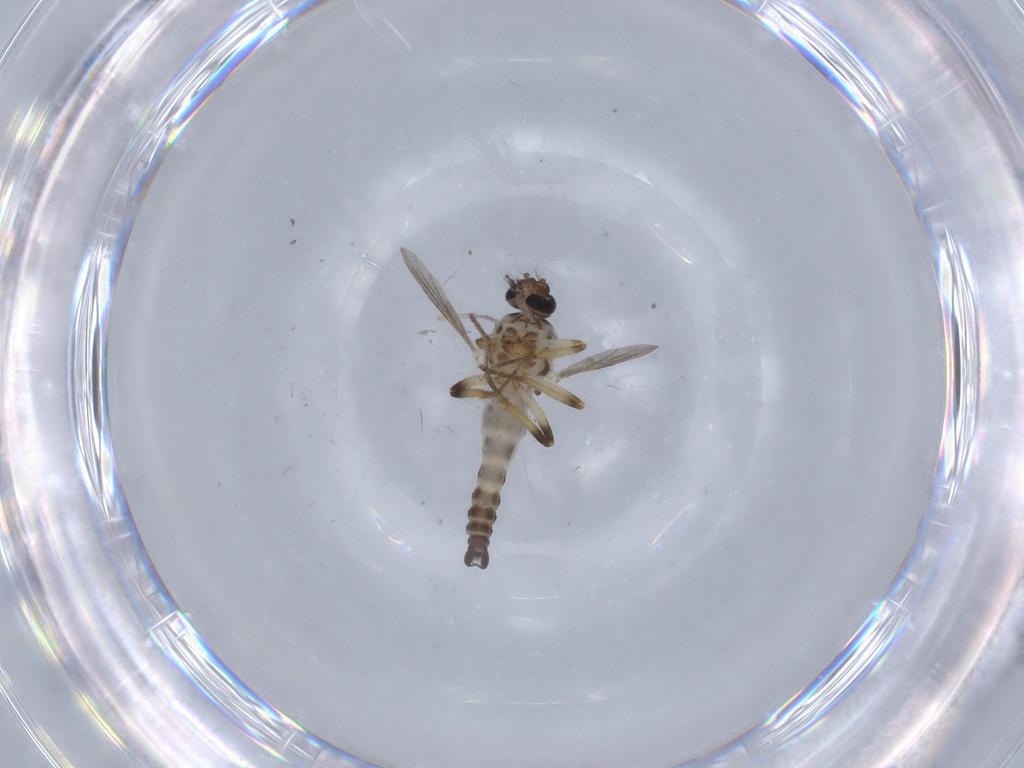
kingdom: Animalia
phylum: Arthropoda
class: Insecta
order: Diptera
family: Ceratopogonidae
